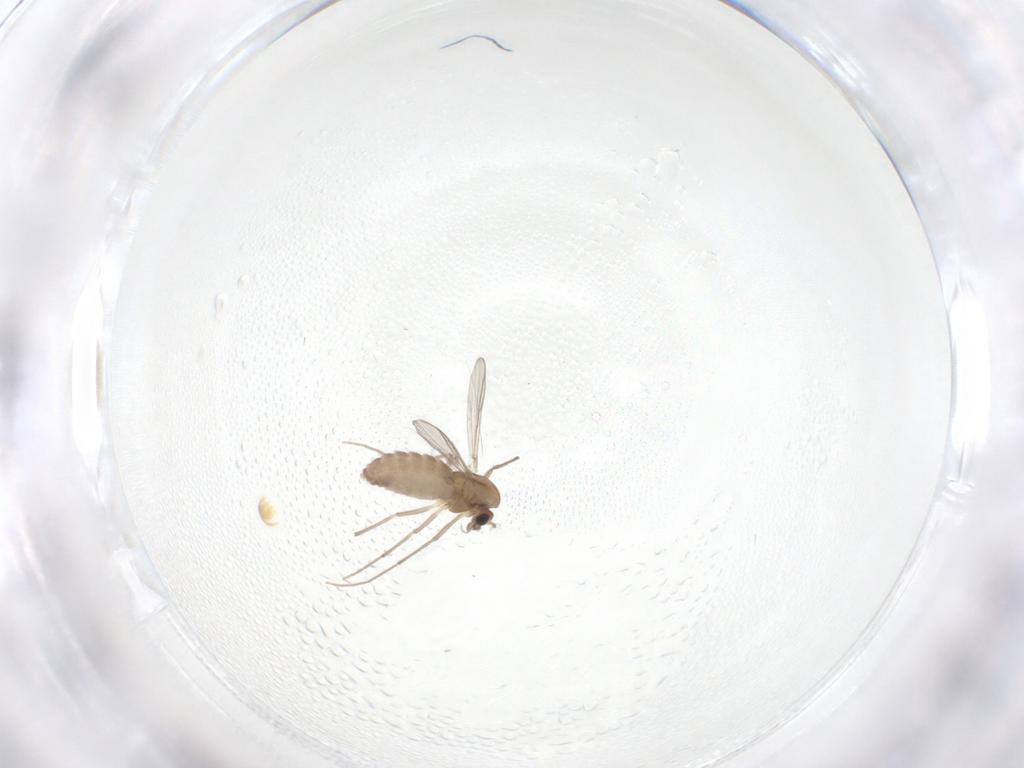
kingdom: Animalia
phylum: Arthropoda
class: Insecta
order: Diptera
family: Chironomidae
